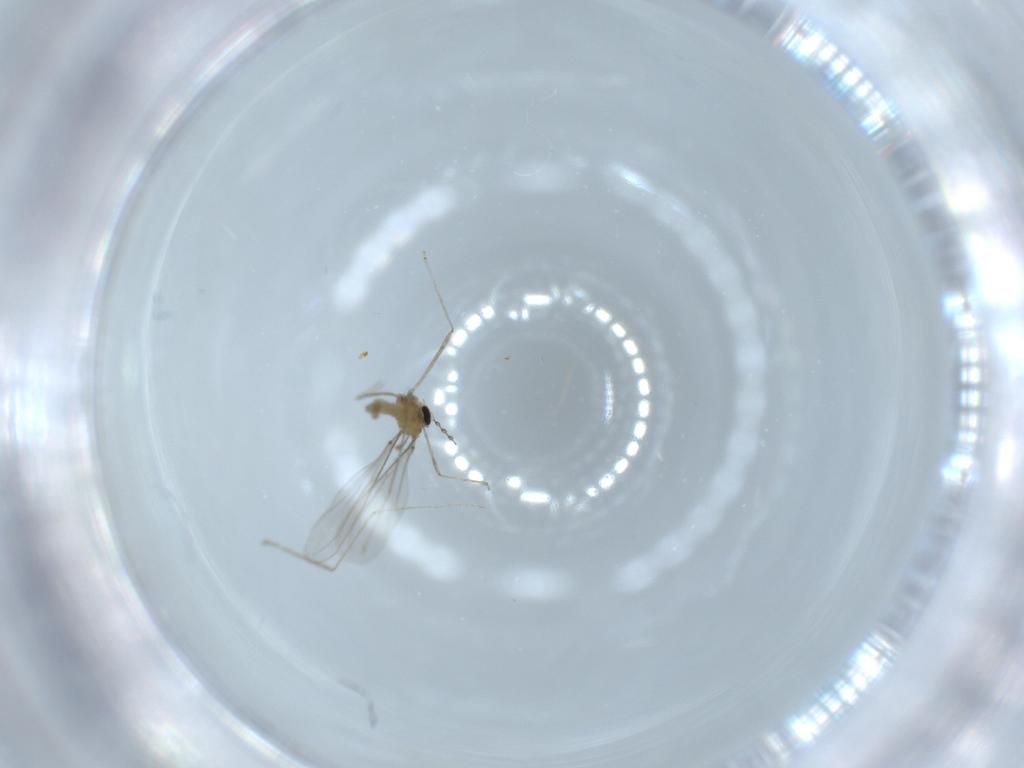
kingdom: Animalia
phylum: Arthropoda
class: Insecta
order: Diptera
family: Cecidomyiidae
